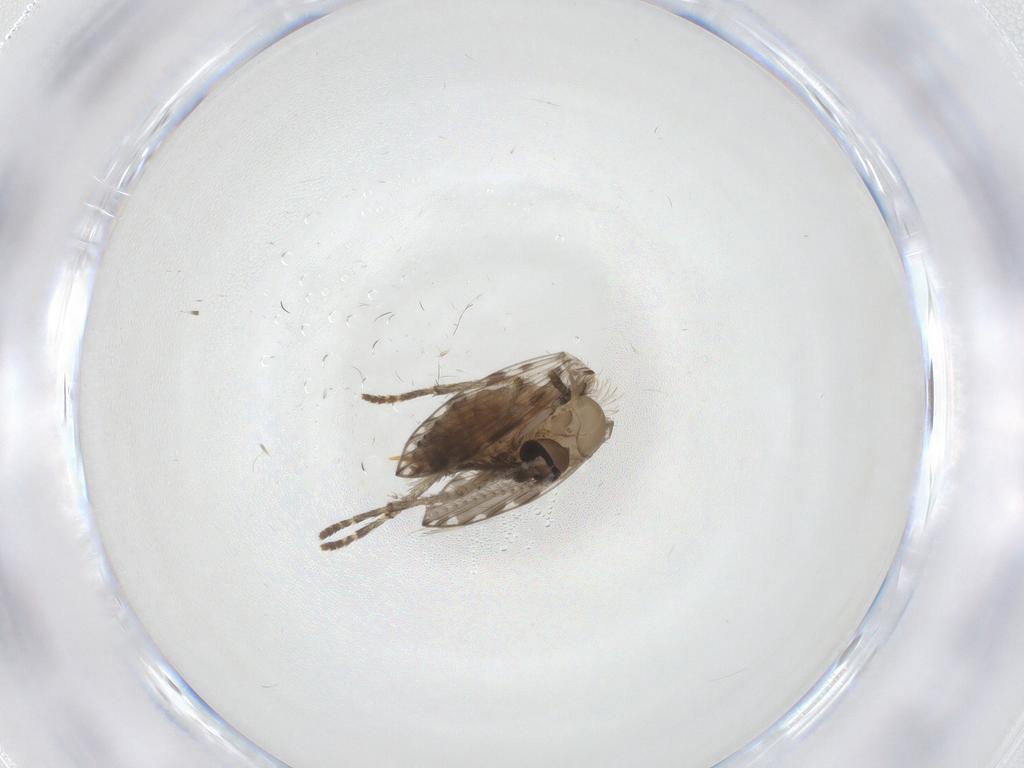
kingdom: Animalia
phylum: Arthropoda
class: Insecta
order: Diptera
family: Psychodidae
